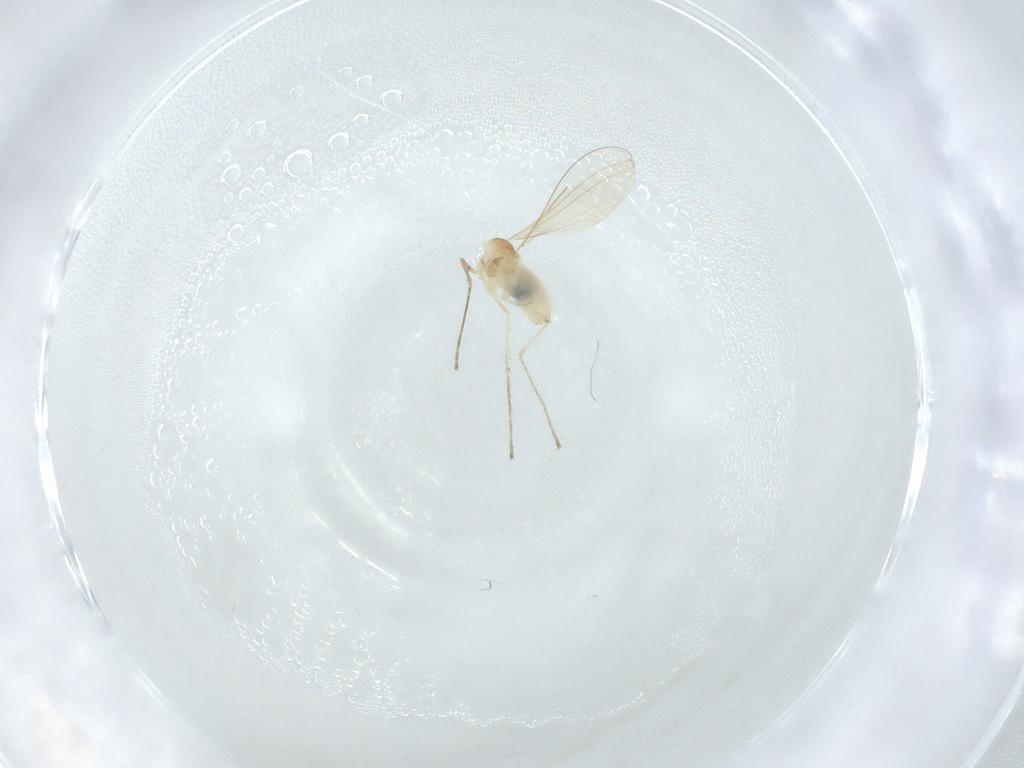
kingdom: Animalia
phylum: Arthropoda
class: Insecta
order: Diptera
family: Cecidomyiidae
